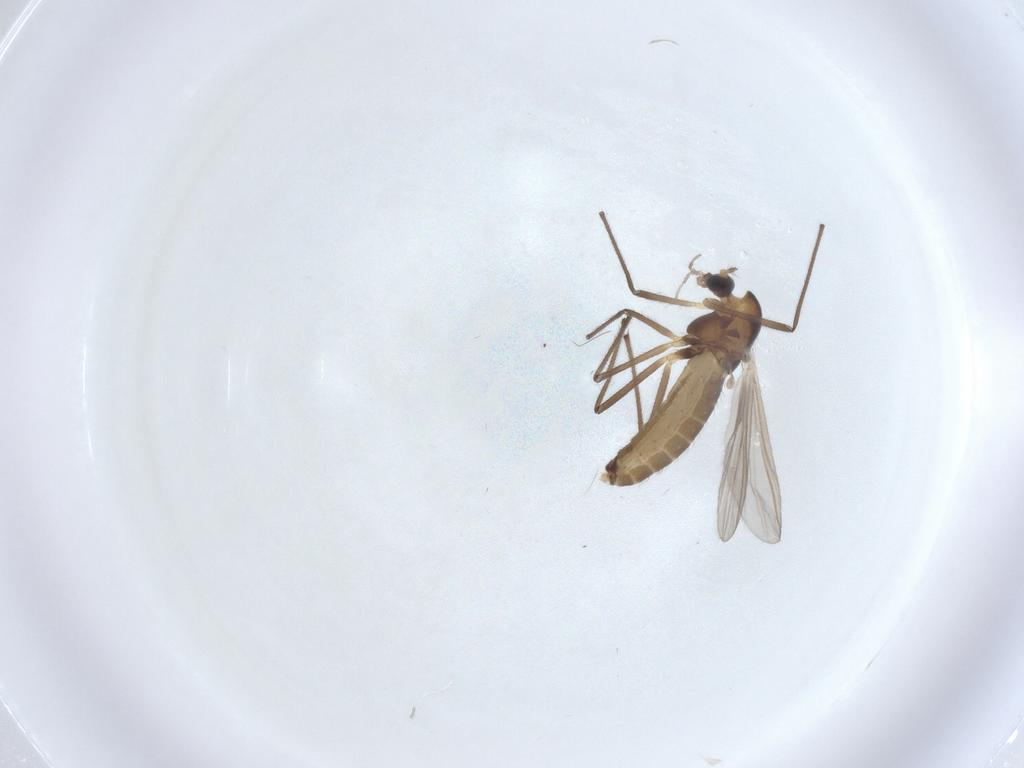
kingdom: Animalia
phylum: Arthropoda
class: Insecta
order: Diptera
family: Chironomidae
